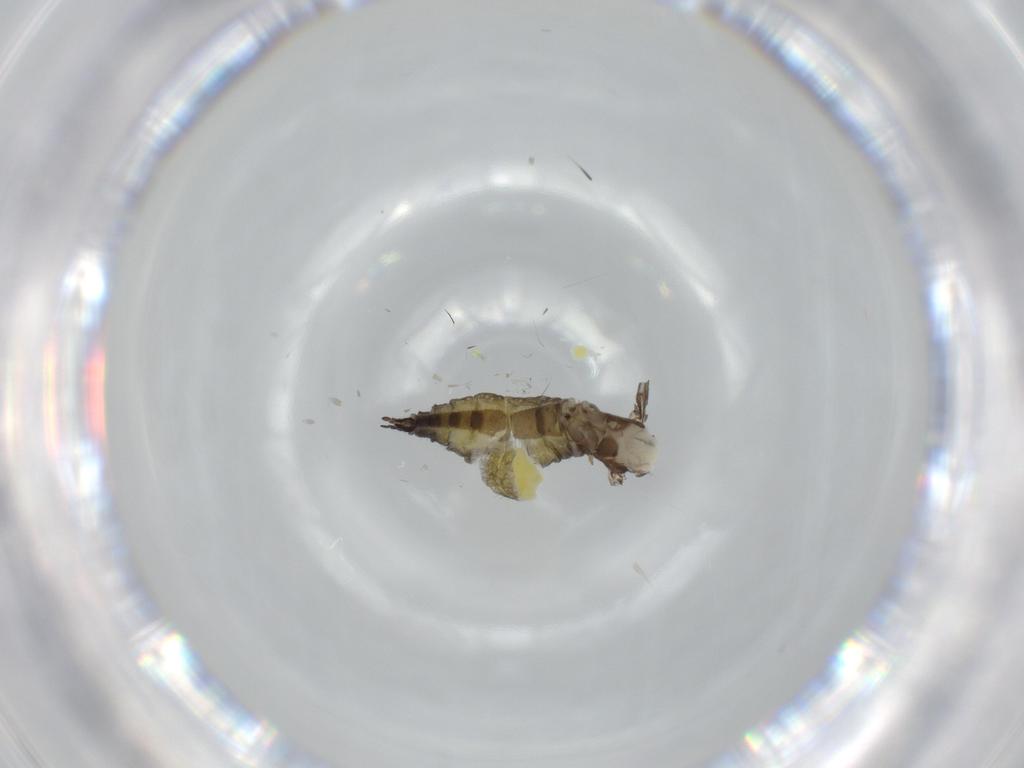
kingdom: Animalia
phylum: Arthropoda
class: Insecta
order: Diptera
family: Sciaridae
